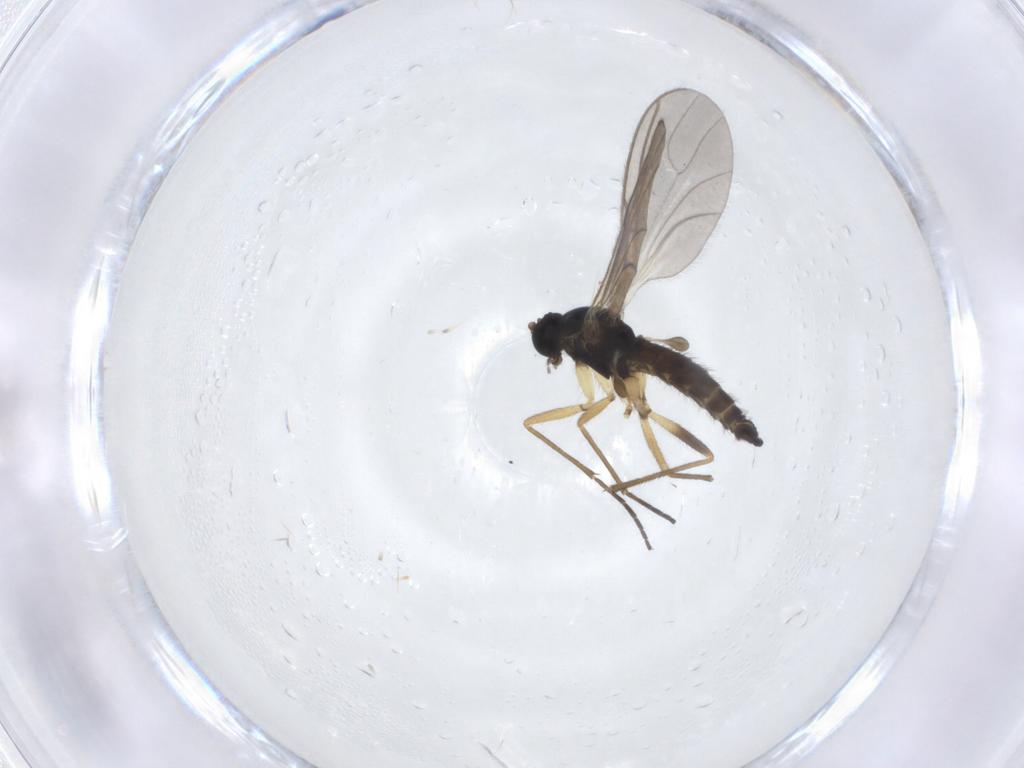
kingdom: Animalia
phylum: Arthropoda
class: Insecta
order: Diptera
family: Sciaridae
